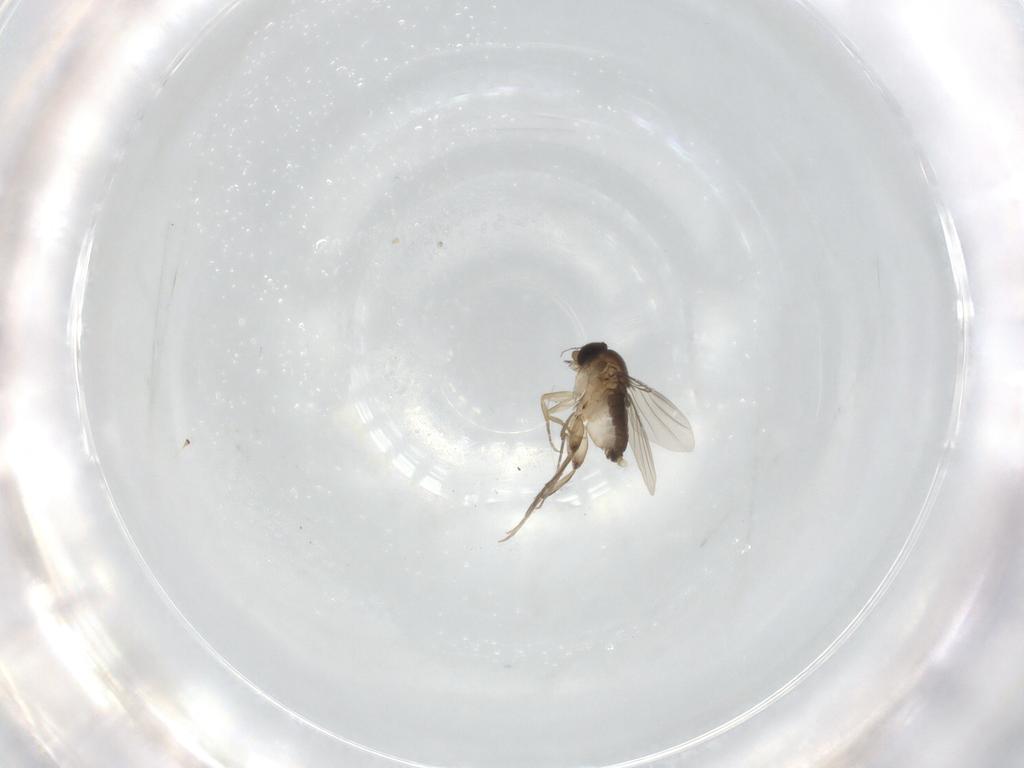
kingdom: Animalia
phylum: Arthropoda
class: Insecta
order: Diptera
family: Phoridae
